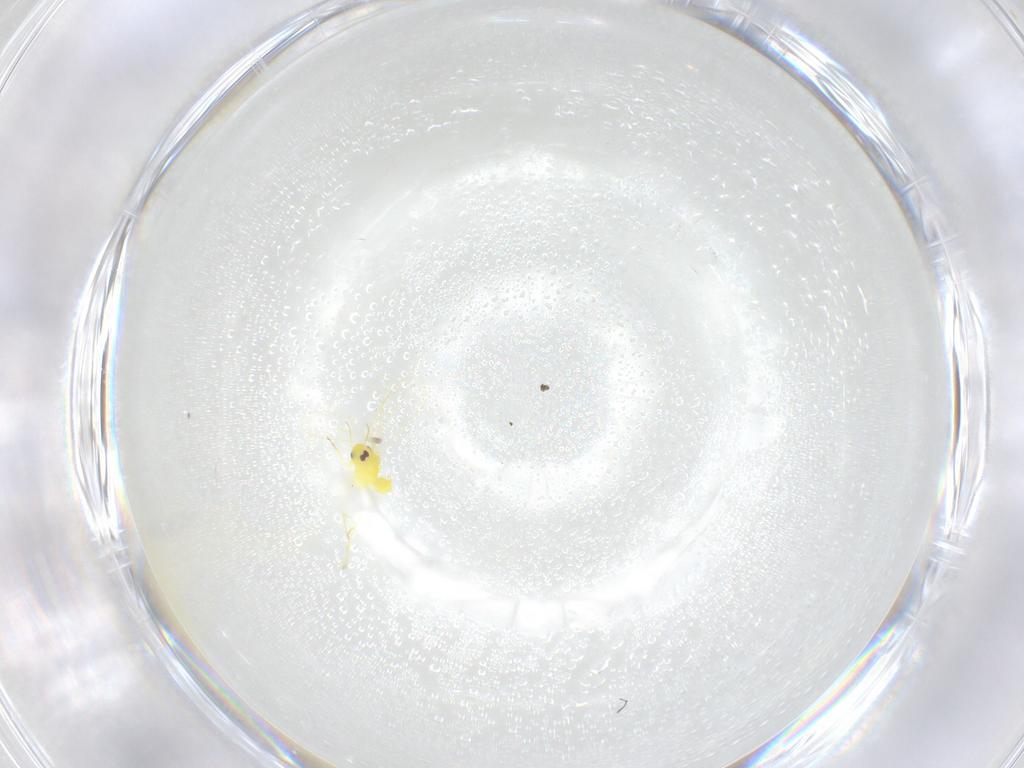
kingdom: Animalia
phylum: Arthropoda
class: Insecta
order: Hemiptera
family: Aleyrodidae
